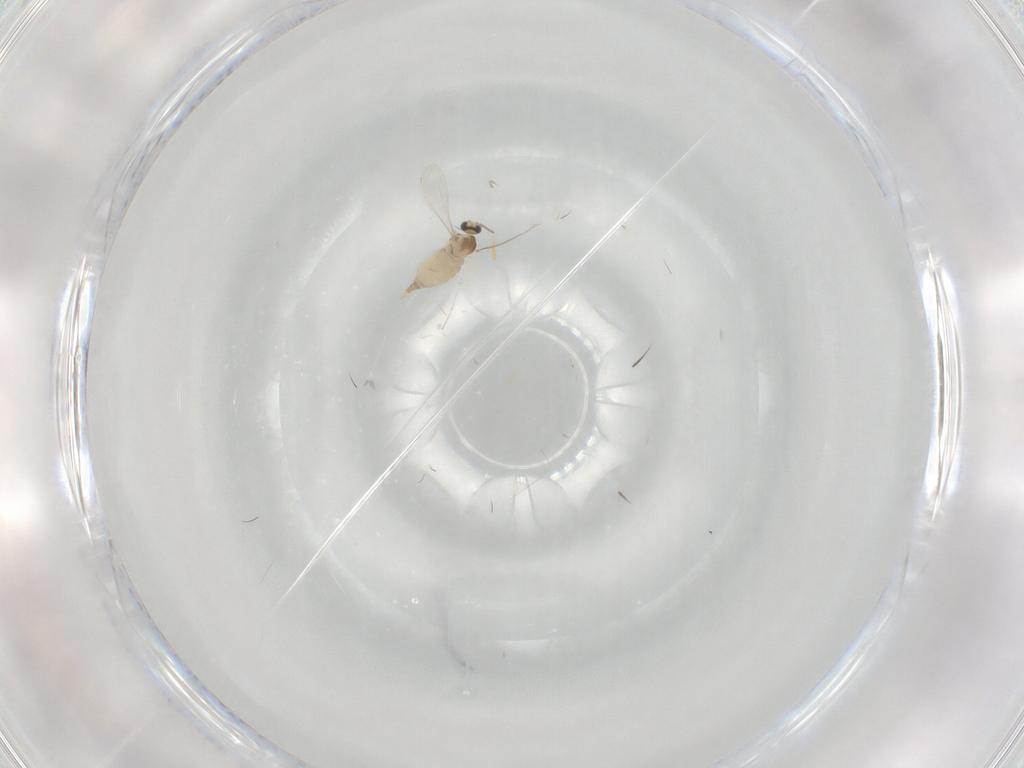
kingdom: Animalia
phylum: Arthropoda
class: Insecta
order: Diptera
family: Limoniidae
